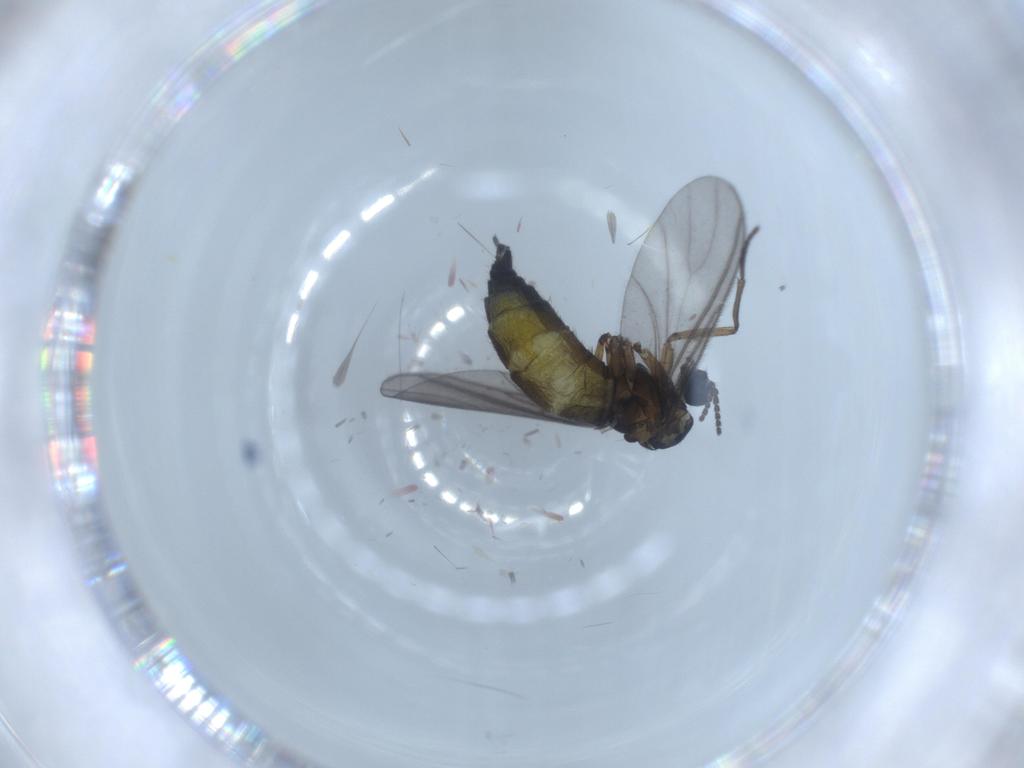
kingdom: Animalia
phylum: Arthropoda
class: Insecta
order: Diptera
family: Sciaridae
